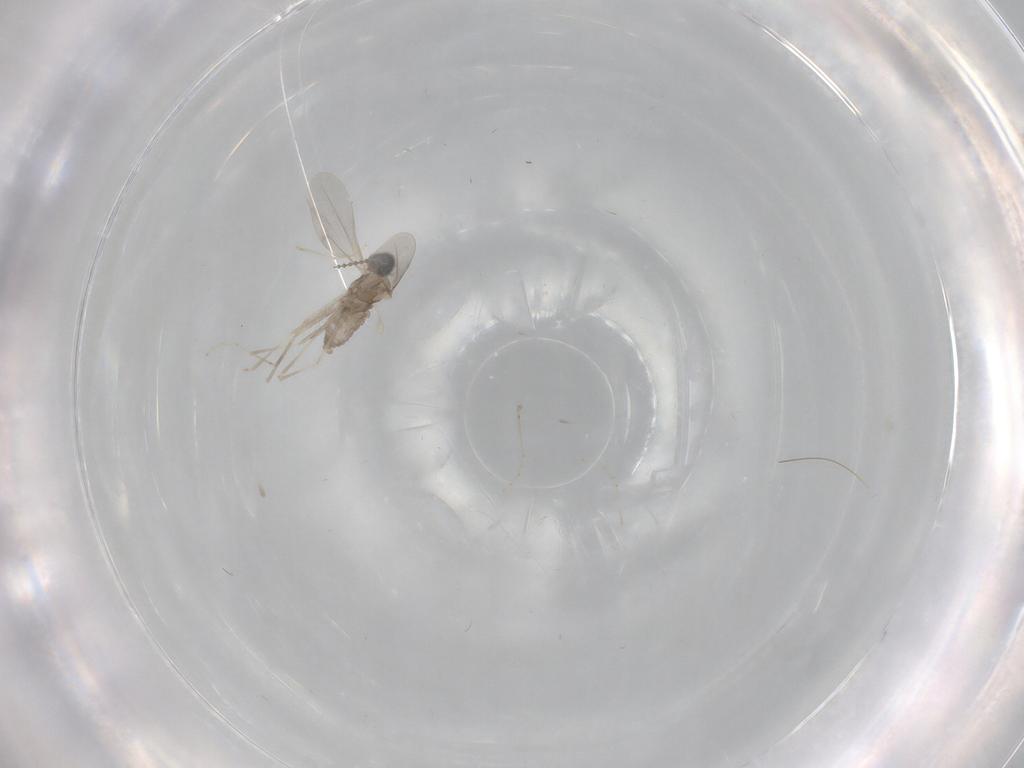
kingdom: Animalia
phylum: Arthropoda
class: Insecta
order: Diptera
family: Cecidomyiidae
